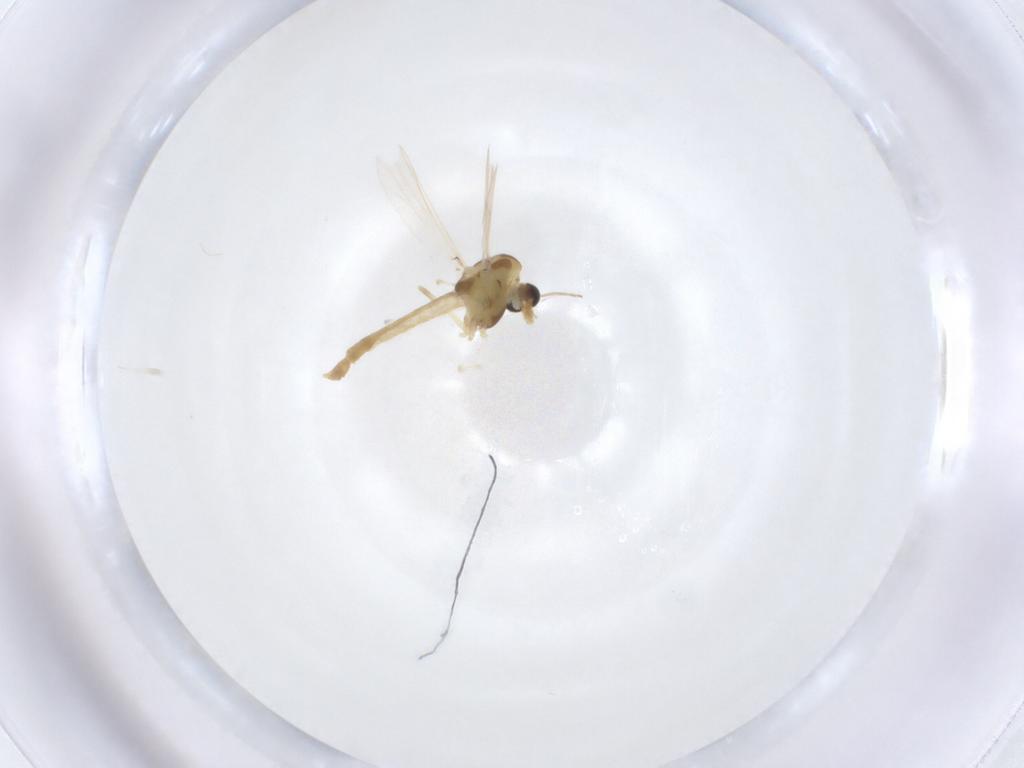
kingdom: Animalia
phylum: Arthropoda
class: Insecta
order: Diptera
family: Chironomidae
